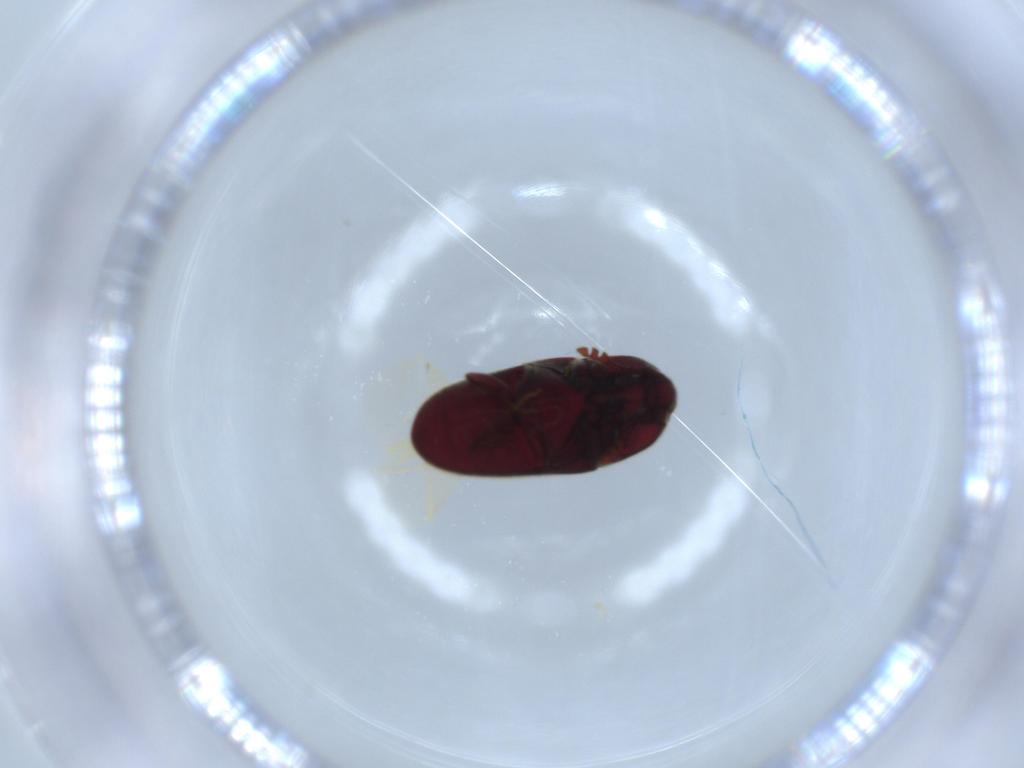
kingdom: Animalia
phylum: Arthropoda
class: Insecta
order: Coleoptera
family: Throscidae
